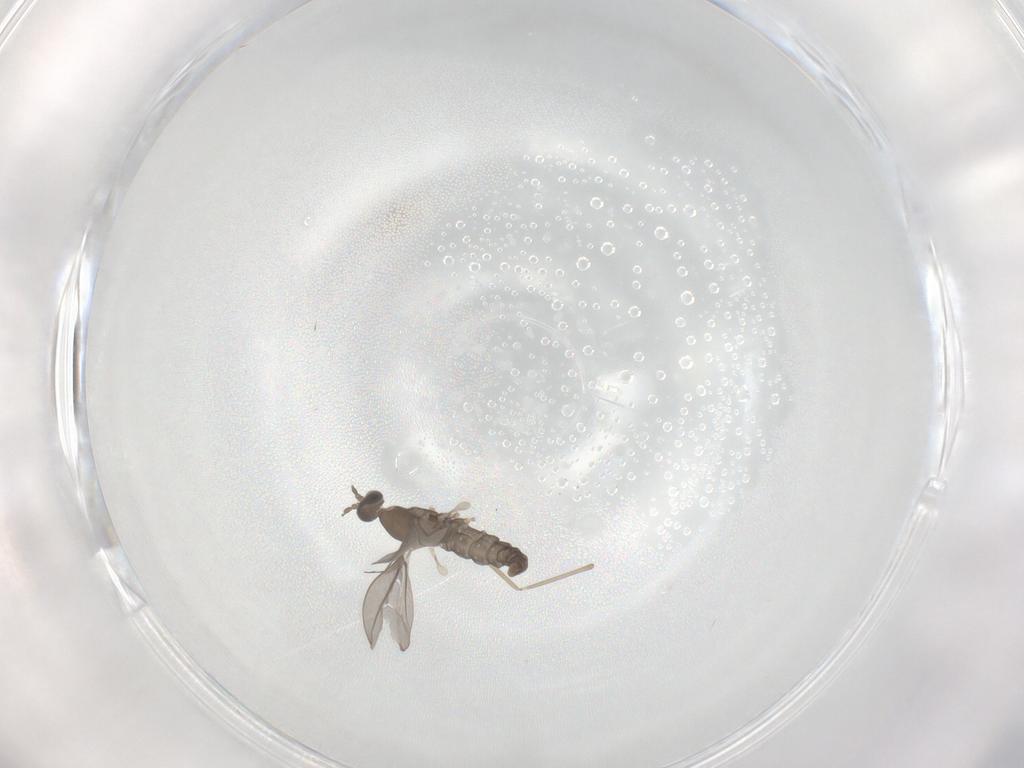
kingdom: Animalia
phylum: Arthropoda
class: Insecta
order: Diptera
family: Cecidomyiidae
